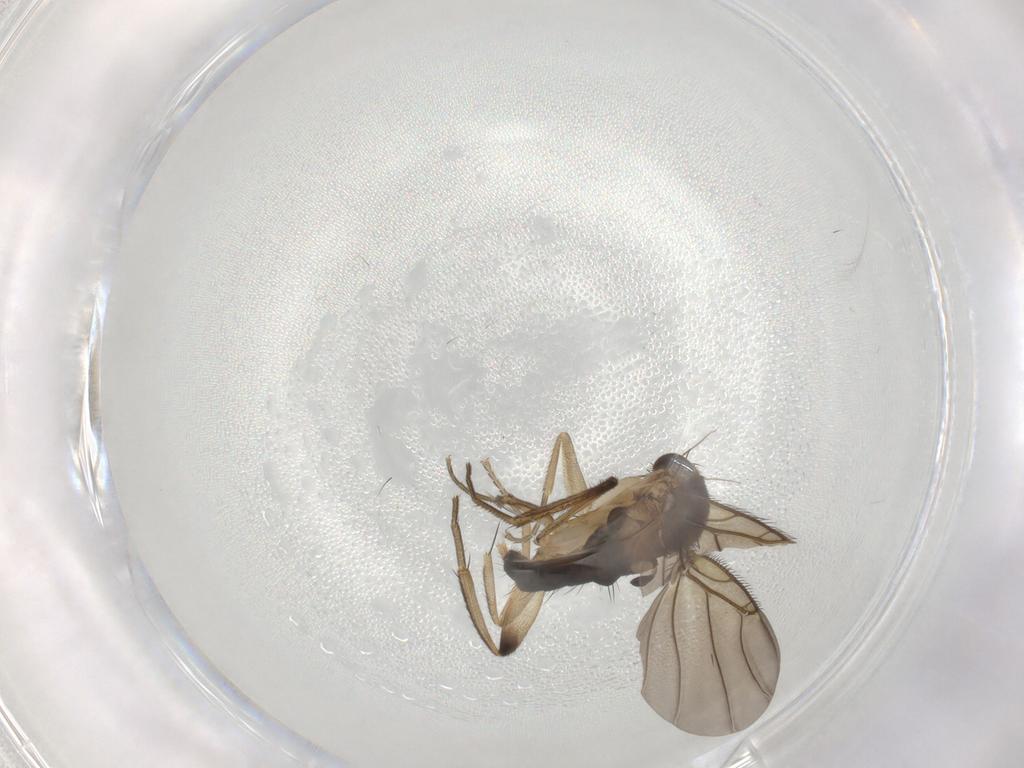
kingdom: Animalia
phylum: Arthropoda
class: Insecta
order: Diptera
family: Phoridae
